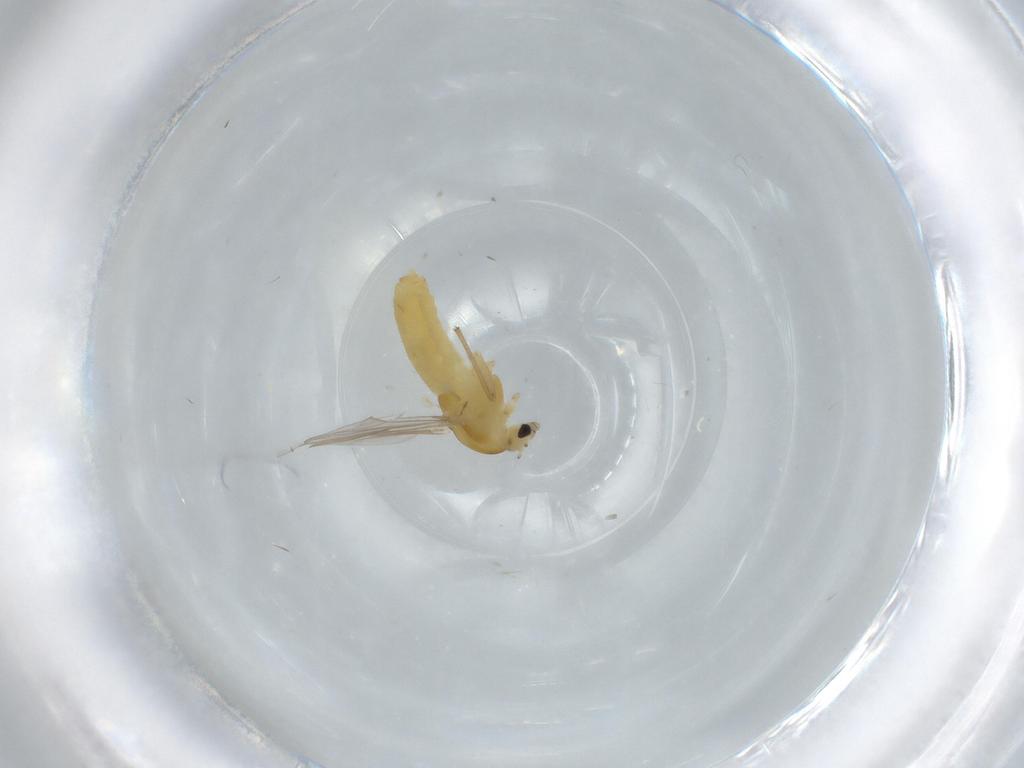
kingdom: Animalia
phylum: Arthropoda
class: Insecta
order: Diptera
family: Chironomidae
